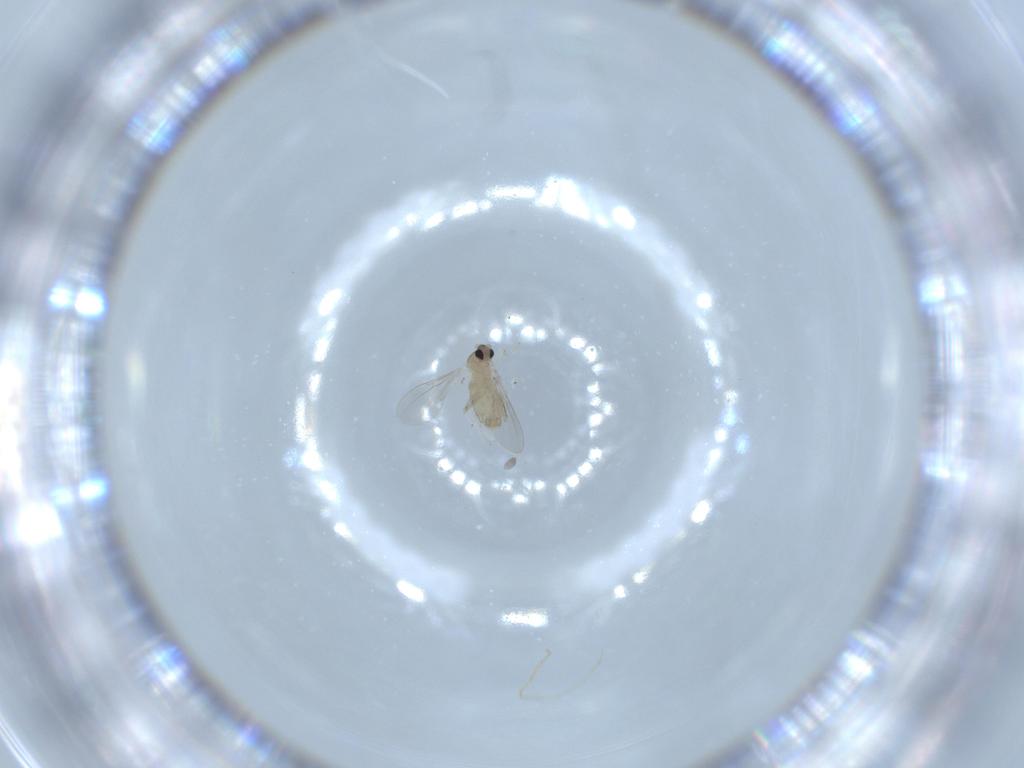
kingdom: Animalia
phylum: Arthropoda
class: Insecta
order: Diptera
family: Cecidomyiidae
